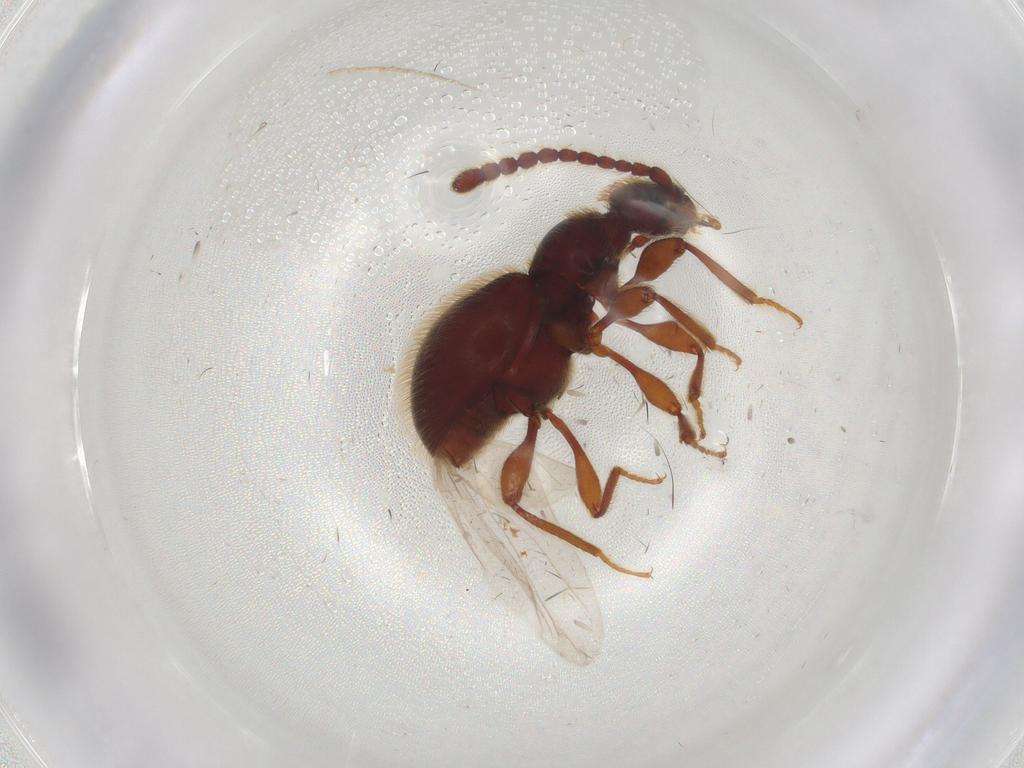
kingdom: Animalia
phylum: Arthropoda
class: Insecta
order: Coleoptera
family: Staphylinidae
